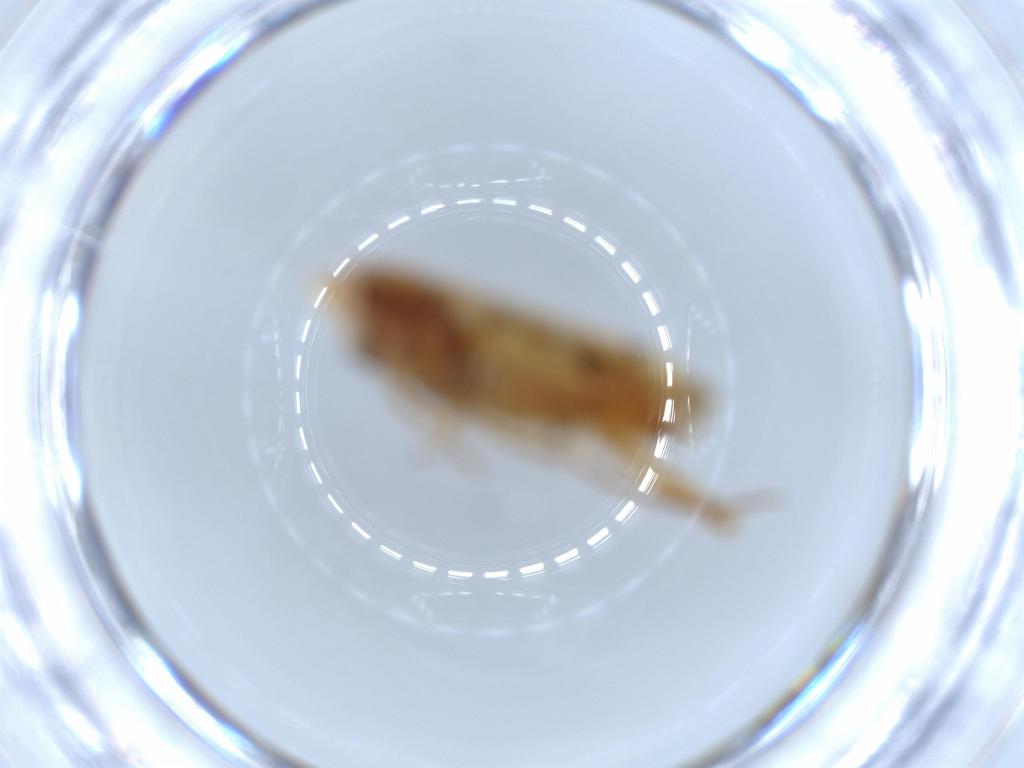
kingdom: Animalia
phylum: Arthropoda
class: Insecta
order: Hemiptera
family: Cicadellidae
